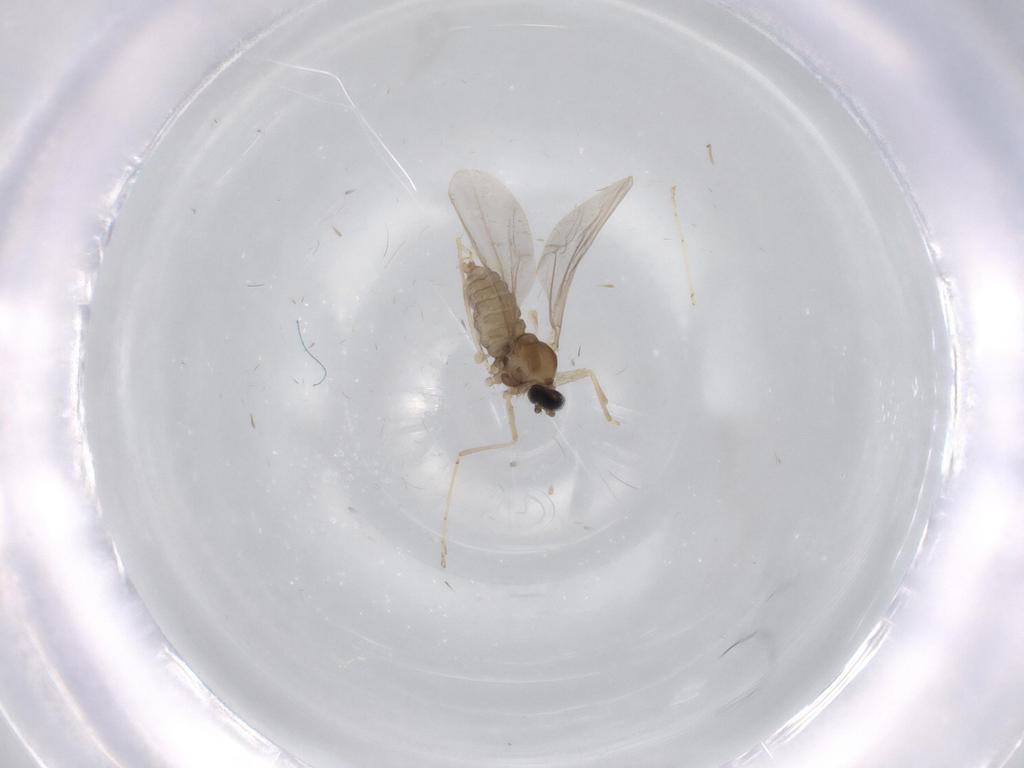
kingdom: Animalia
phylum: Arthropoda
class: Insecta
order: Diptera
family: Cecidomyiidae
